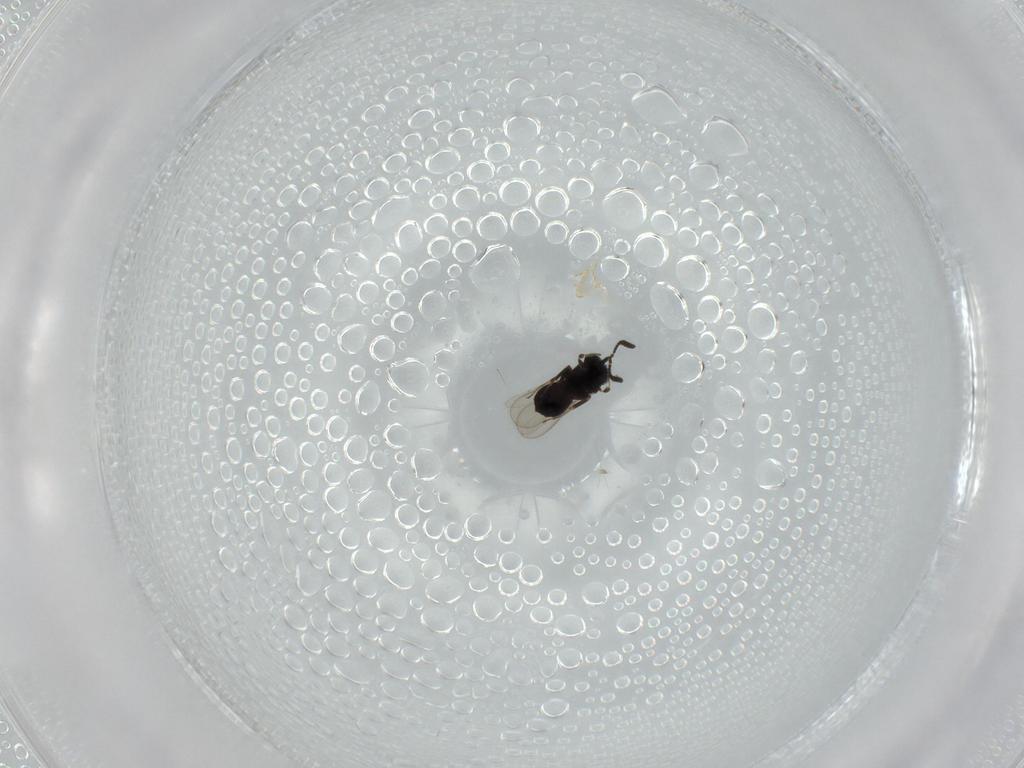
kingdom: Animalia
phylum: Arthropoda
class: Insecta
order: Hymenoptera
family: Scelionidae
